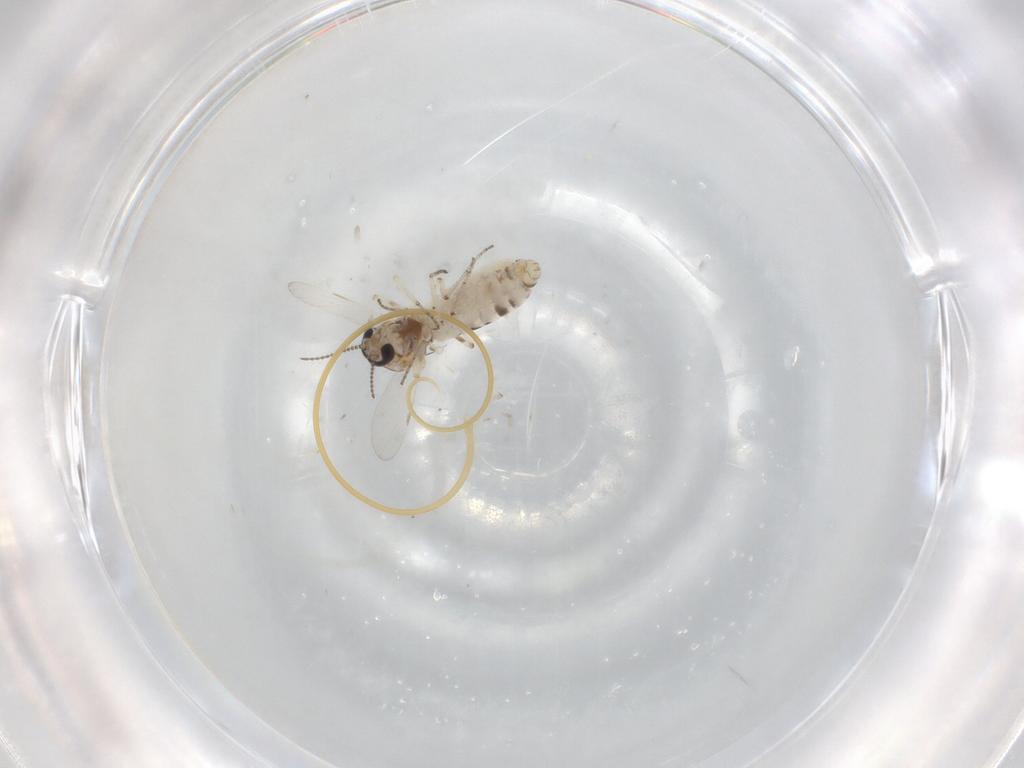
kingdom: Animalia
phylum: Arthropoda
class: Insecta
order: Diptera
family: Ceratopogonidae
